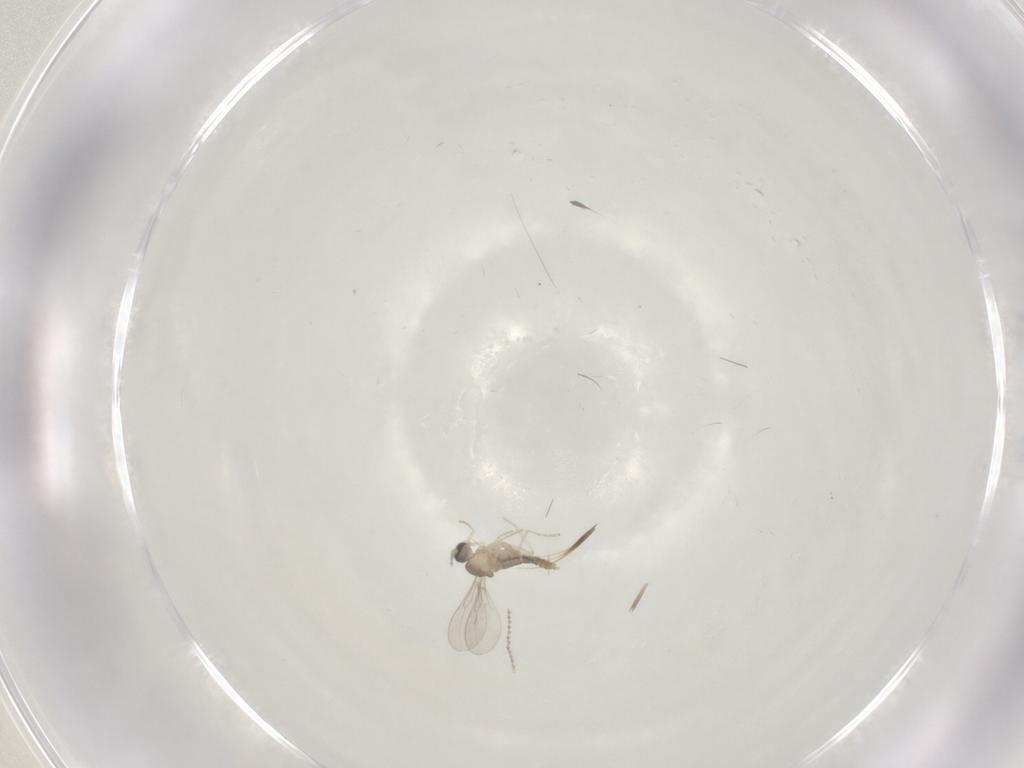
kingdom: Animalia
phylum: Arthropoda
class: Insecta
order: Diptera
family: Cecidomyiidae
